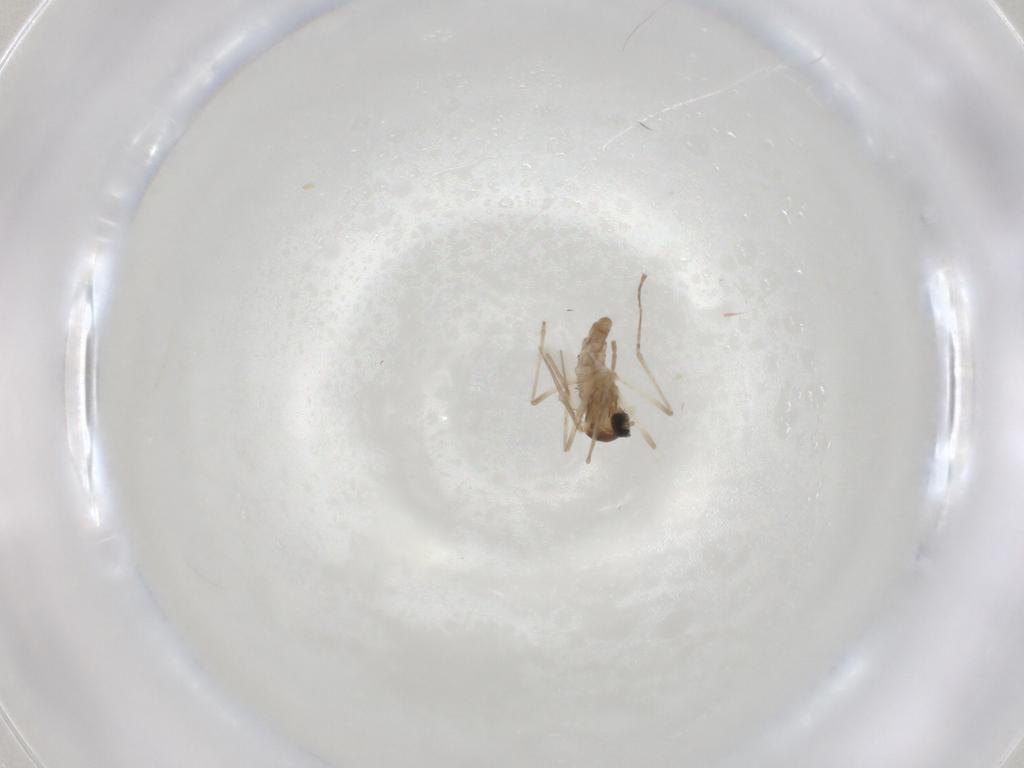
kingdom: Animalia
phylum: Arthropoda
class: Insecta
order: Diptera
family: Cecidomyiidae
